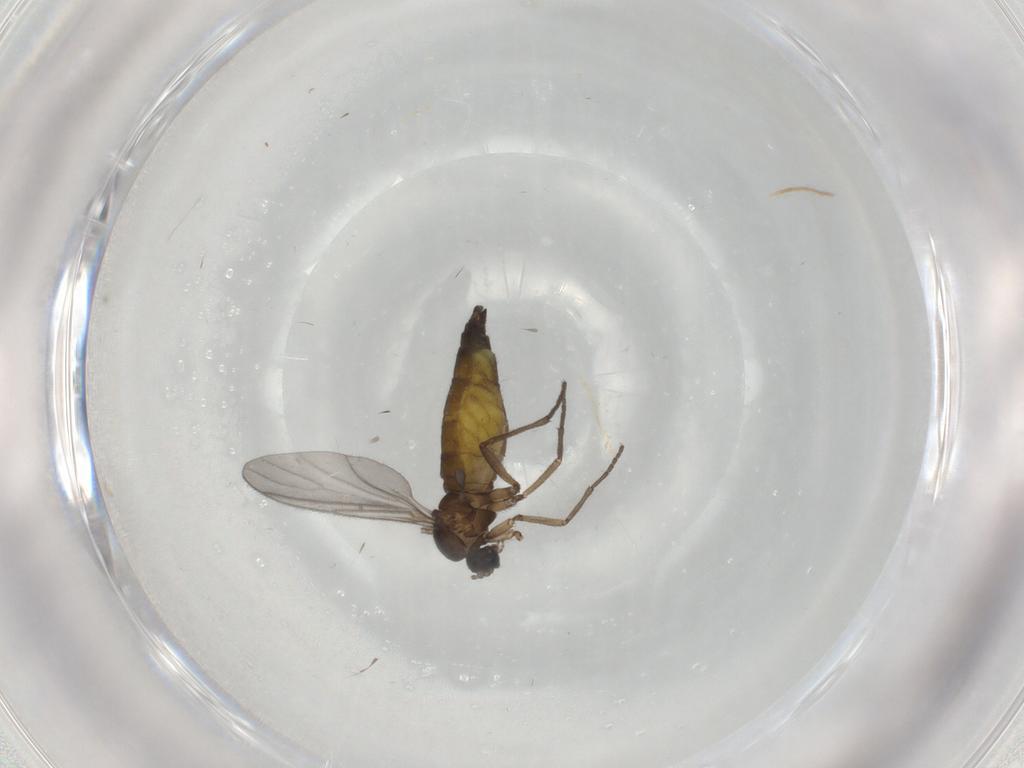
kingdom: Animalia
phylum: Arthropoda
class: Insecta
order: Diptera
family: Sciaridae
